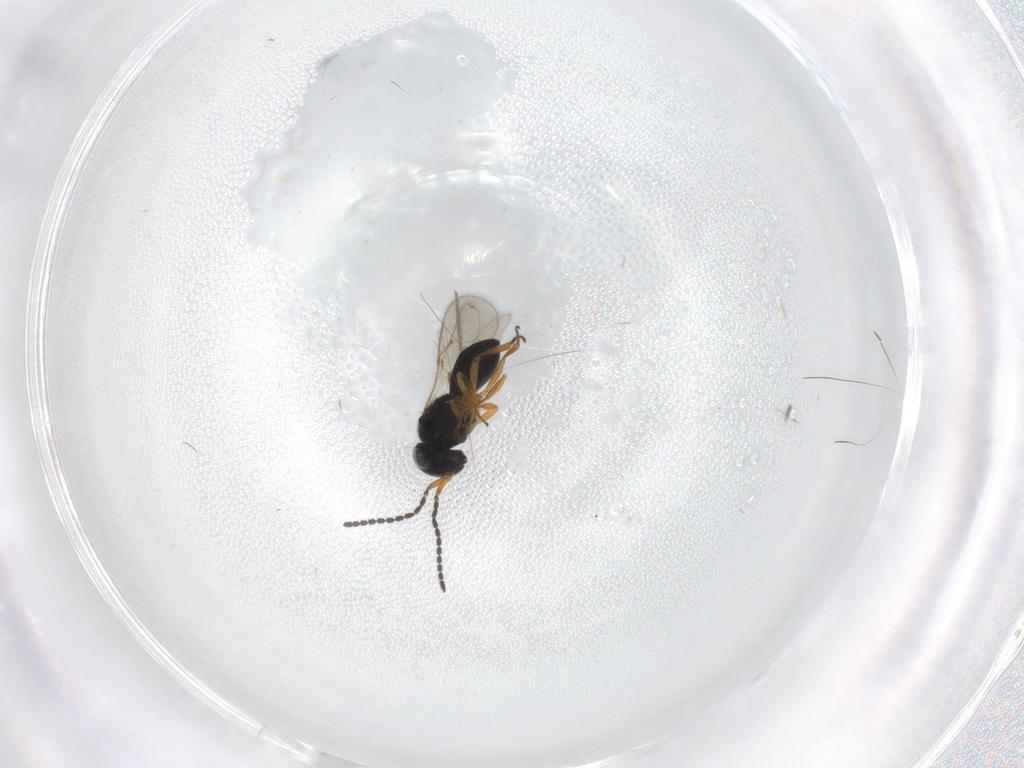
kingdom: Animalia
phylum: Arthropoda
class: Insecta
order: Hymenoptera
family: Scelionidae
